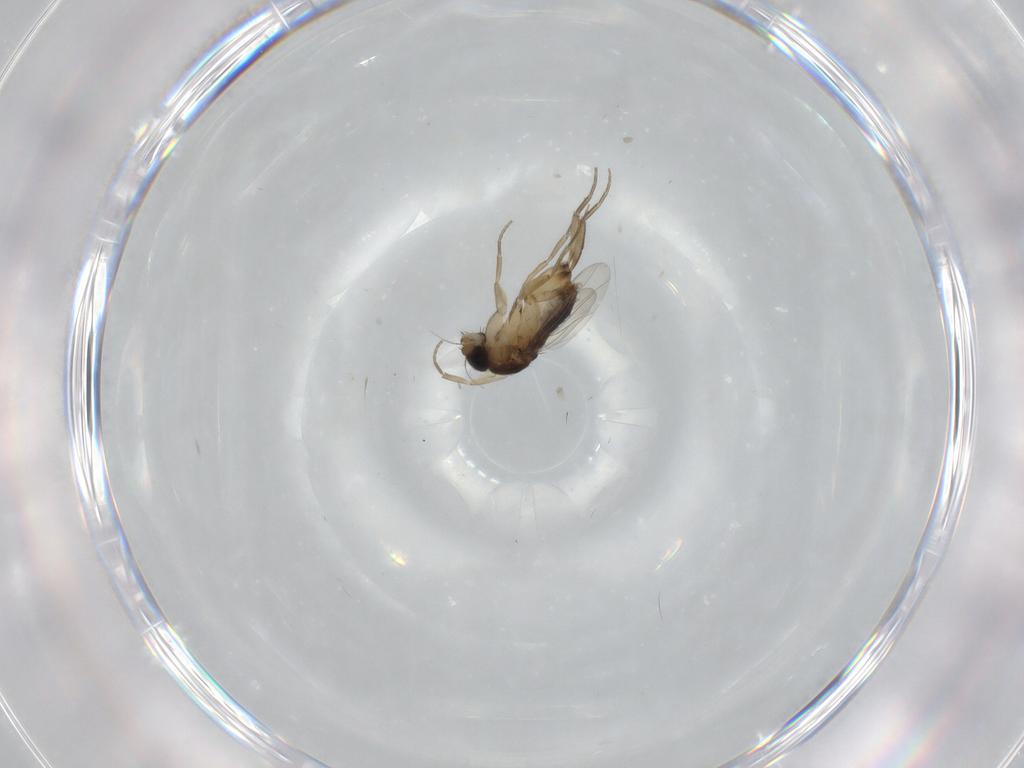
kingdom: Animalia
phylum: Arthropoda
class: Insecta
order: Diptera
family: Phoridae
